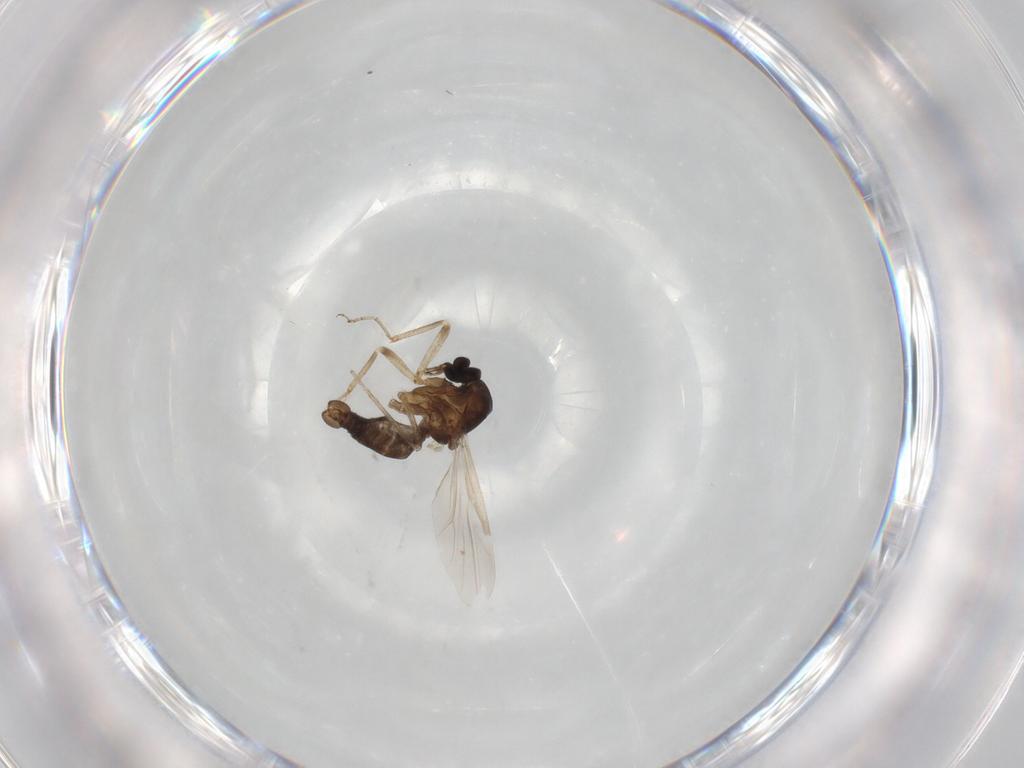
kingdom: Animalia
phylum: Arthropoda
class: Insecta
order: Diptera
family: Ceratopogonidae
